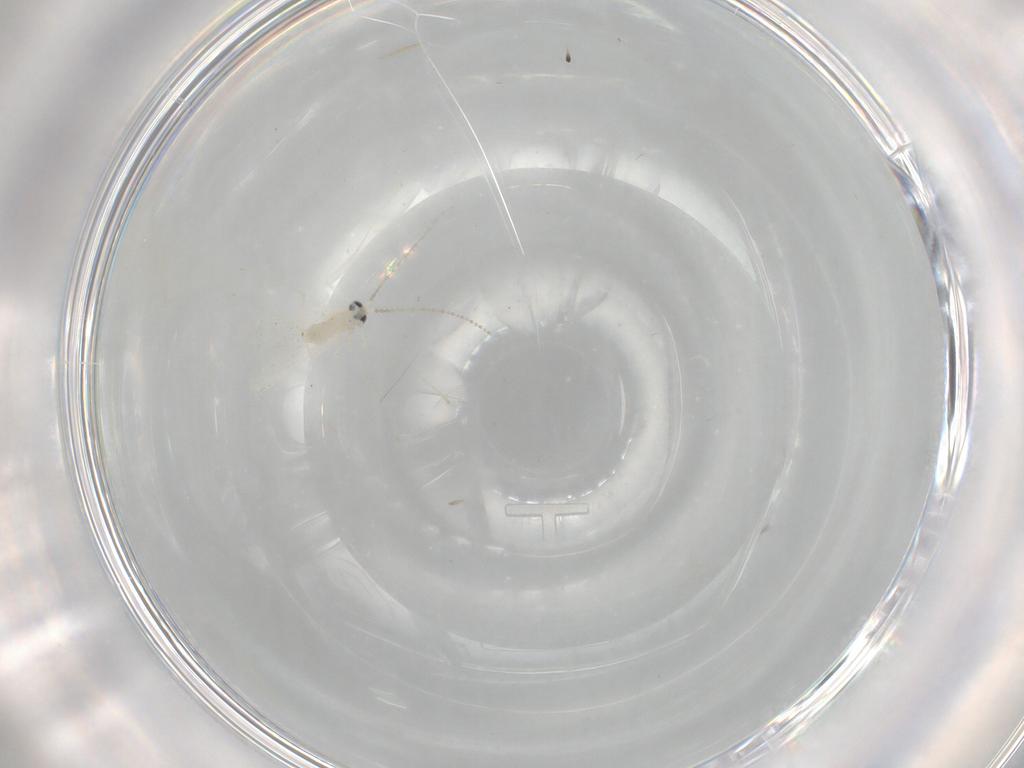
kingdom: Animalia
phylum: Arthropoda
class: Insecta
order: Diptera
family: Cecidomyiidae
